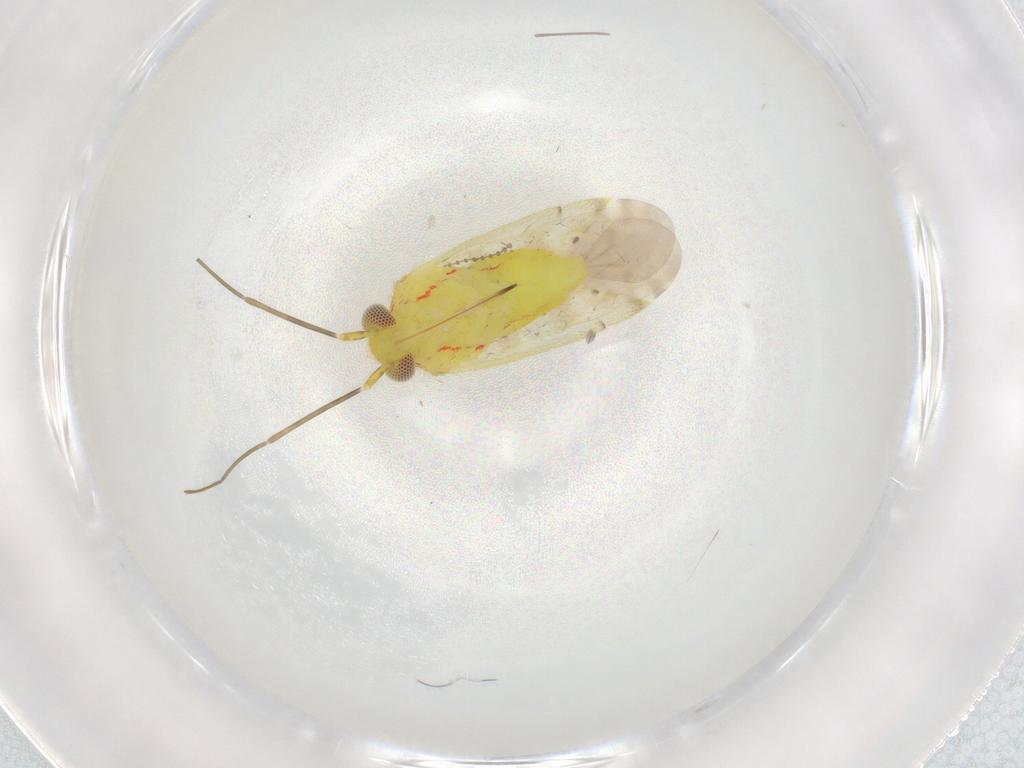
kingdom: Animalia
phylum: Arthropoda
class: Insecta
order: Hemiptera
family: Miridae
